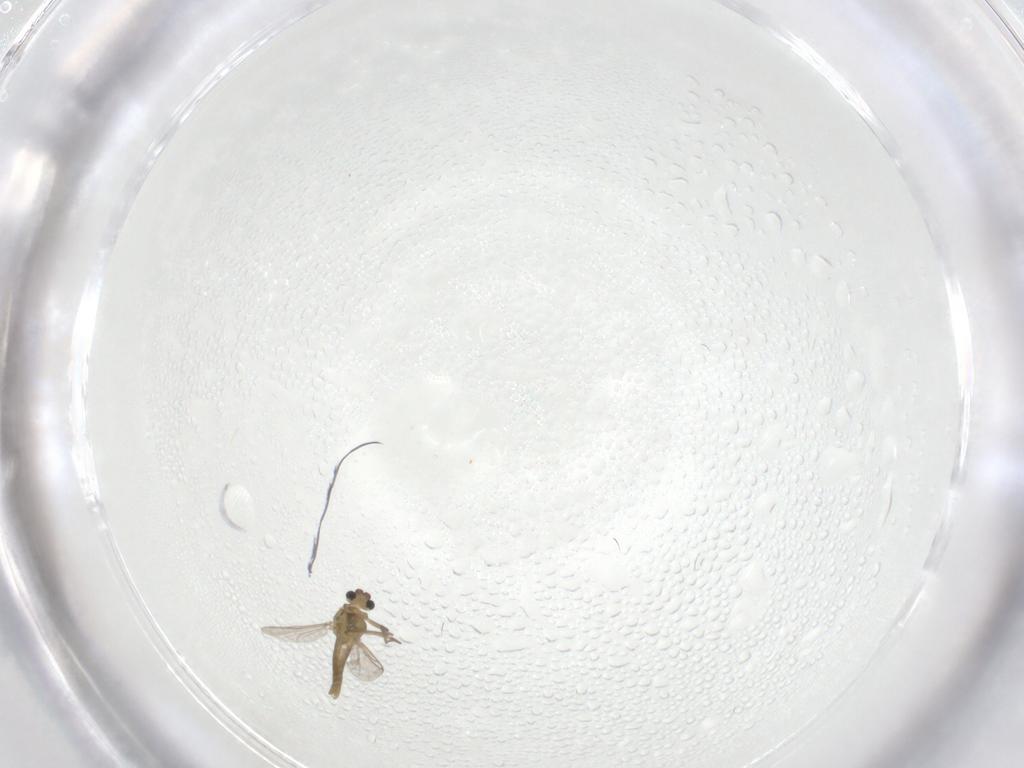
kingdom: Animalia
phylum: Arthropoda
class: Insecta
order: Diptera
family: Chironomidae
